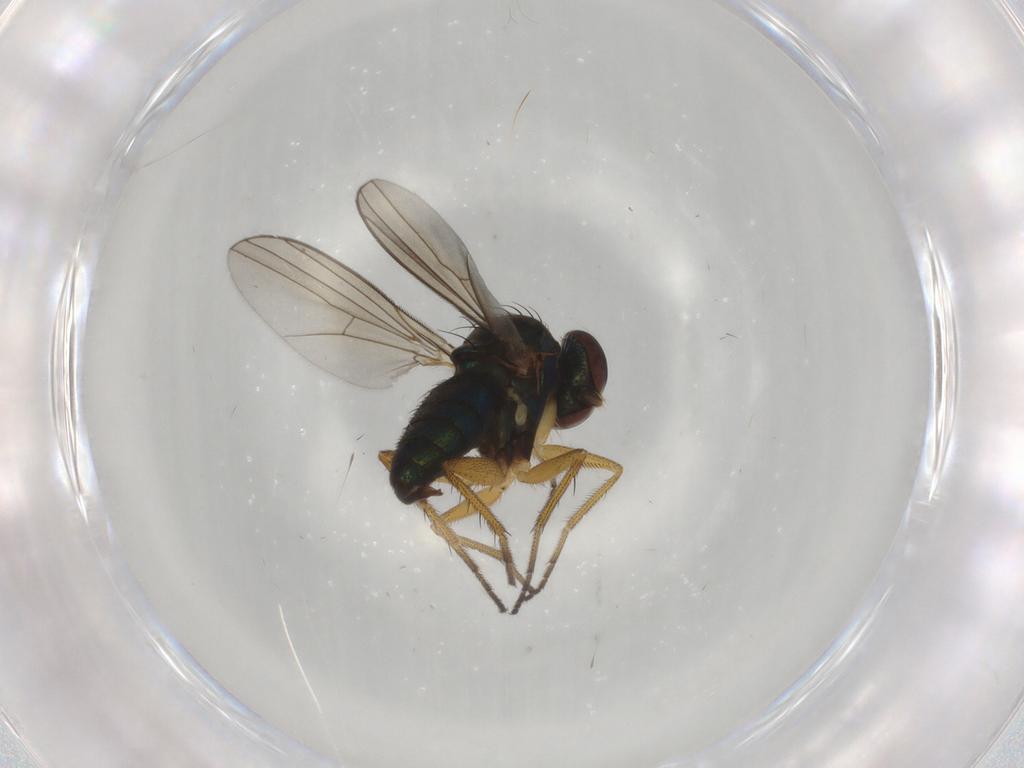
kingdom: Animalia
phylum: Arthropoda
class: Insecta
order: Diptera
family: Dolichopodidae
